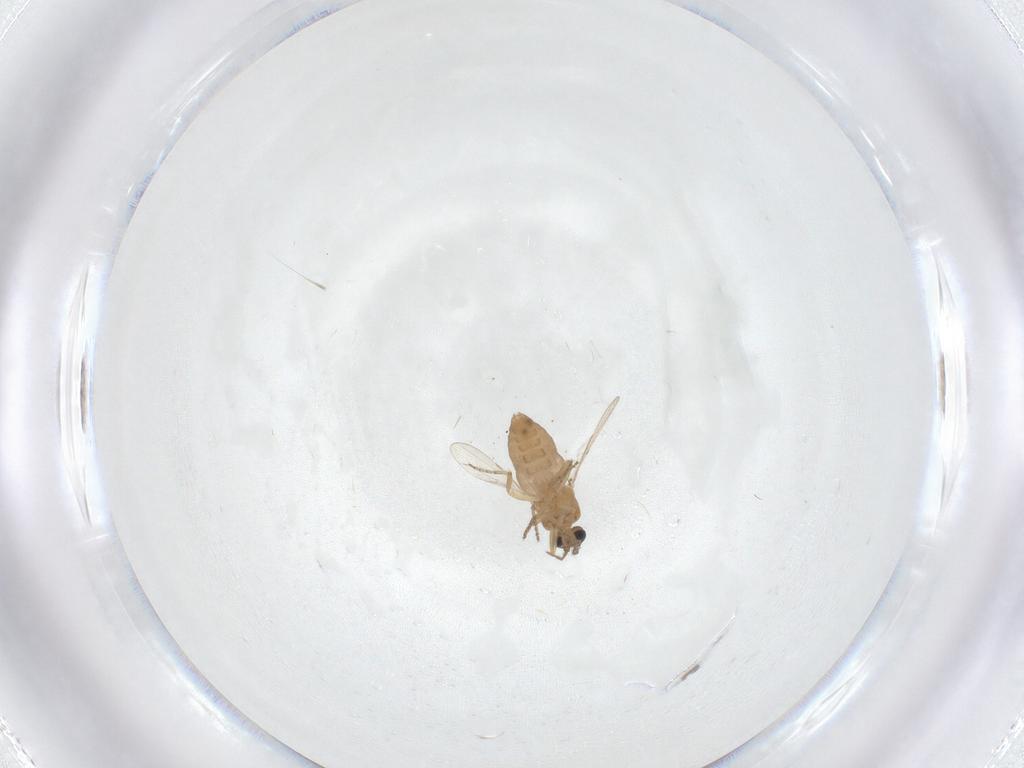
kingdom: Animalia
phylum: Arthropoda
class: Insecta
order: Diptera
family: Ceratopogonidae
